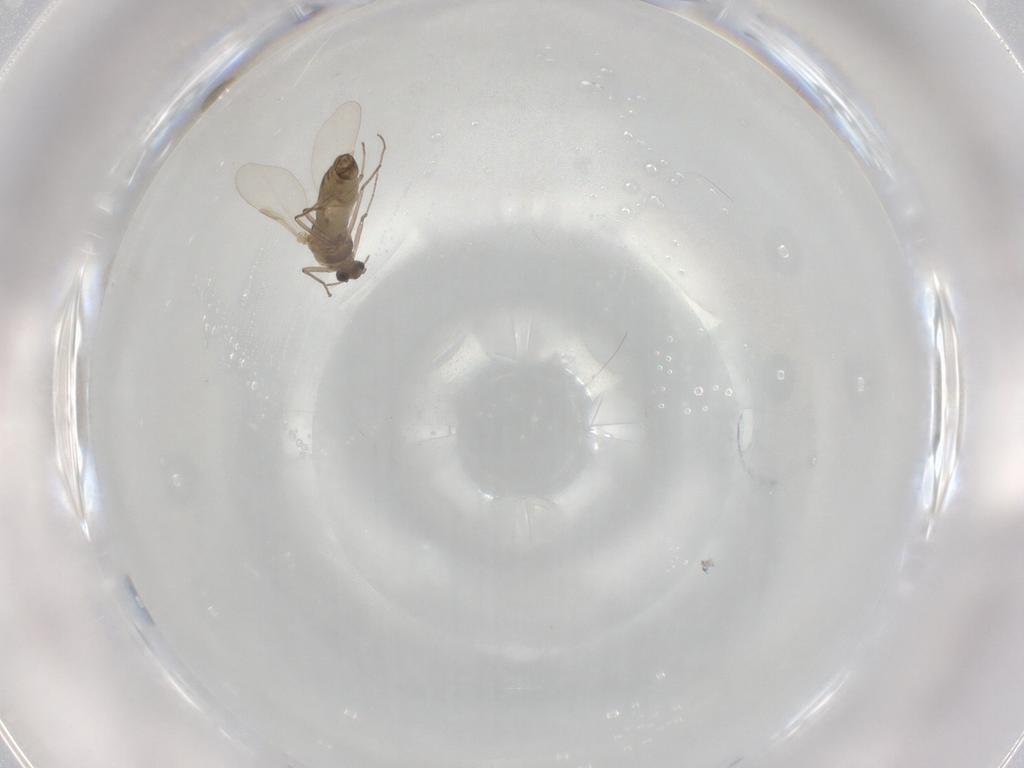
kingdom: Animalia
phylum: Arthropoda
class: Insecta
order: Diptera
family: Chironomidae
